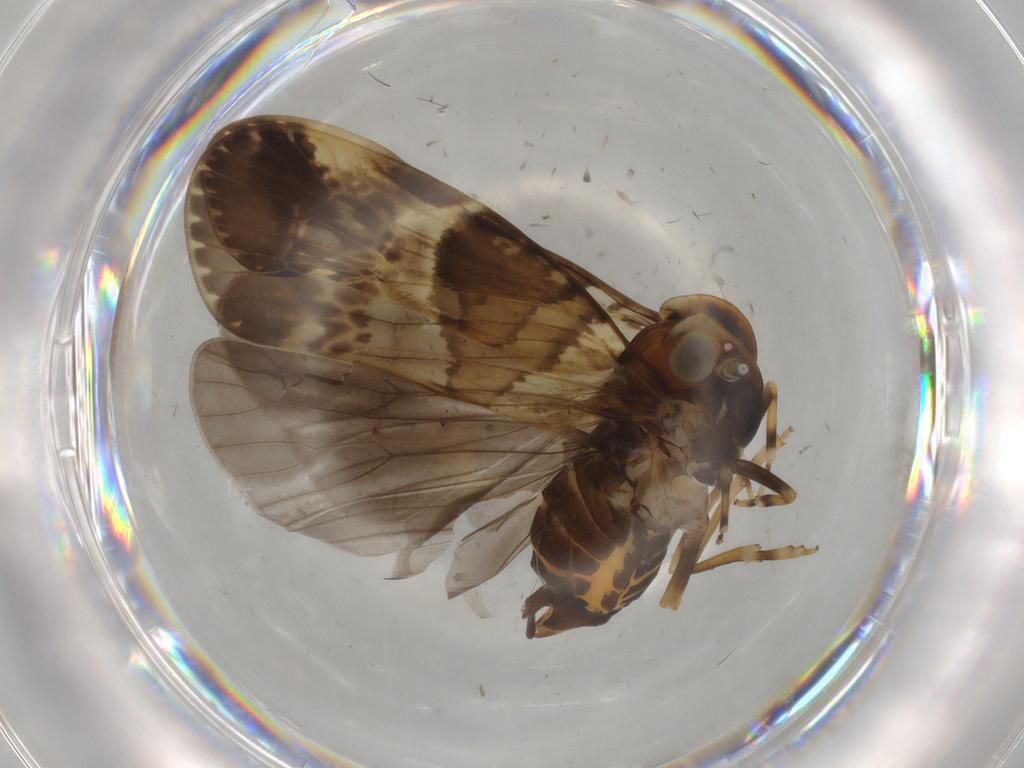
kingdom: Animalia
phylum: Arthropoda
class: Insecta
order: Hemiptera
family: Cixiidae
